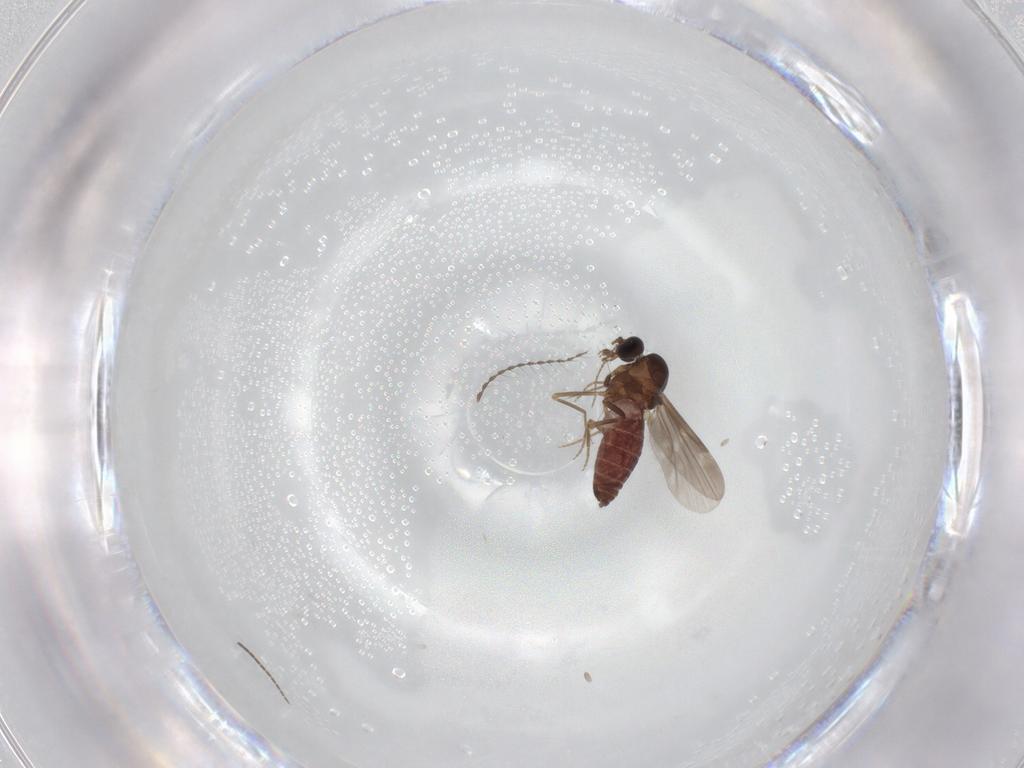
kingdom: Animalia
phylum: Arthropoda
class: Insecta
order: Diptera
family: Ceratopogonidae
